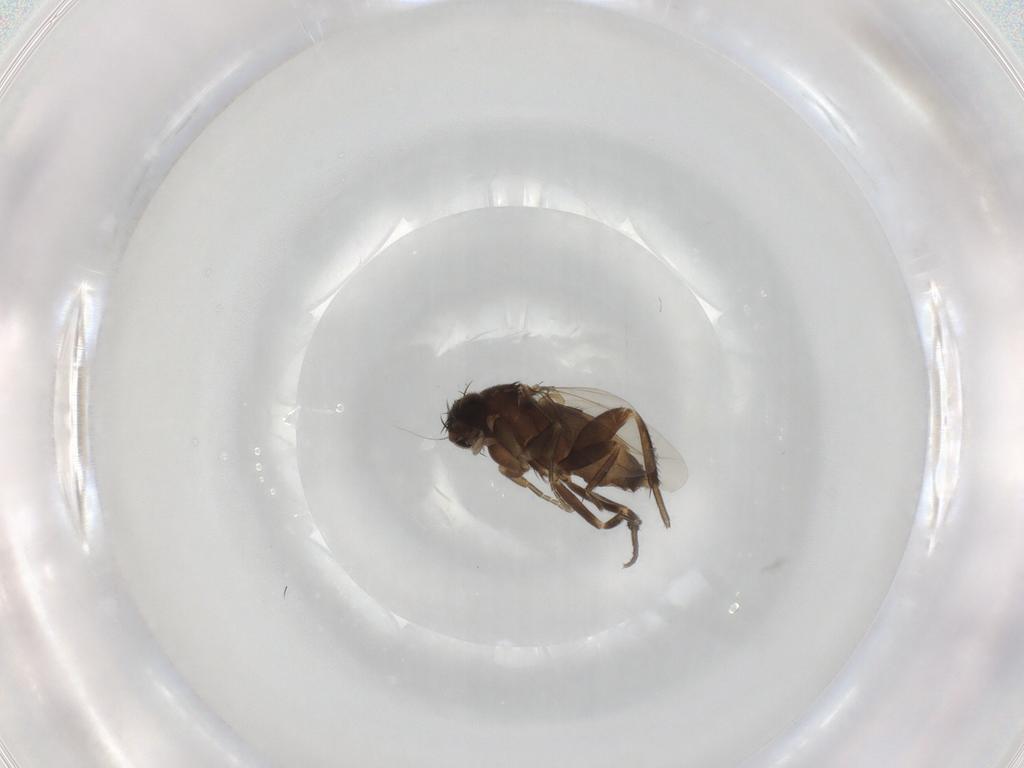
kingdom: Animalia
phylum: Arthropoda
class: Insecta
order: Diptera
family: Phoridae
